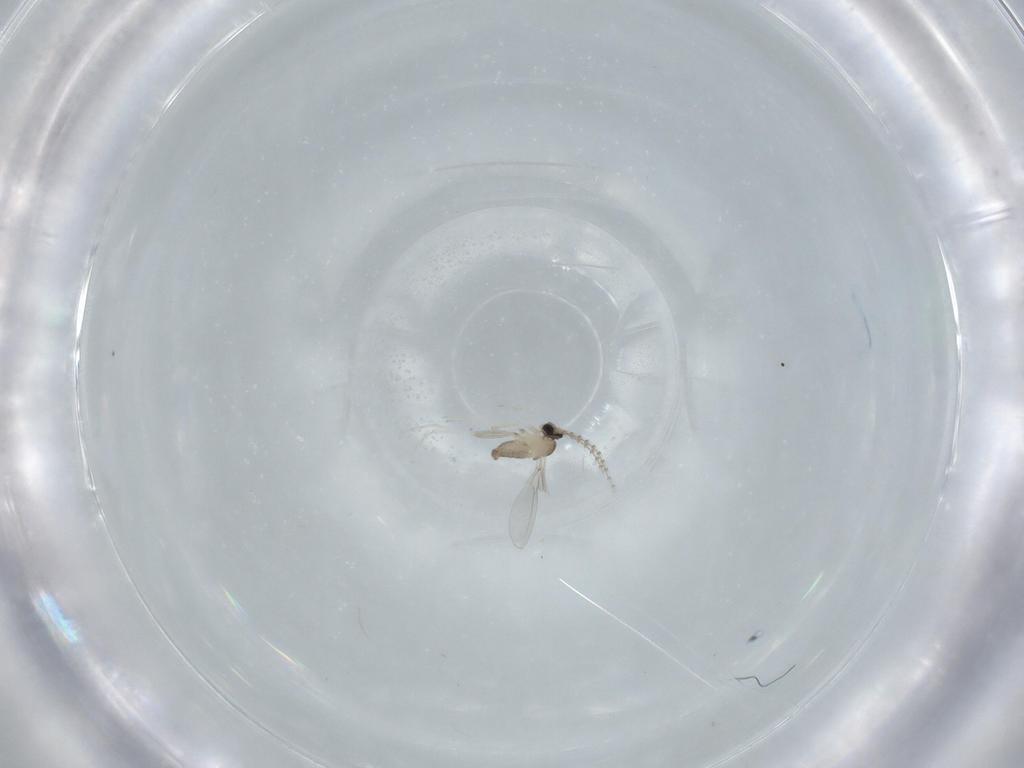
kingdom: Animalia
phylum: Arthropoda
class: Insecta
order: Diptera
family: Cecidomyiidae
